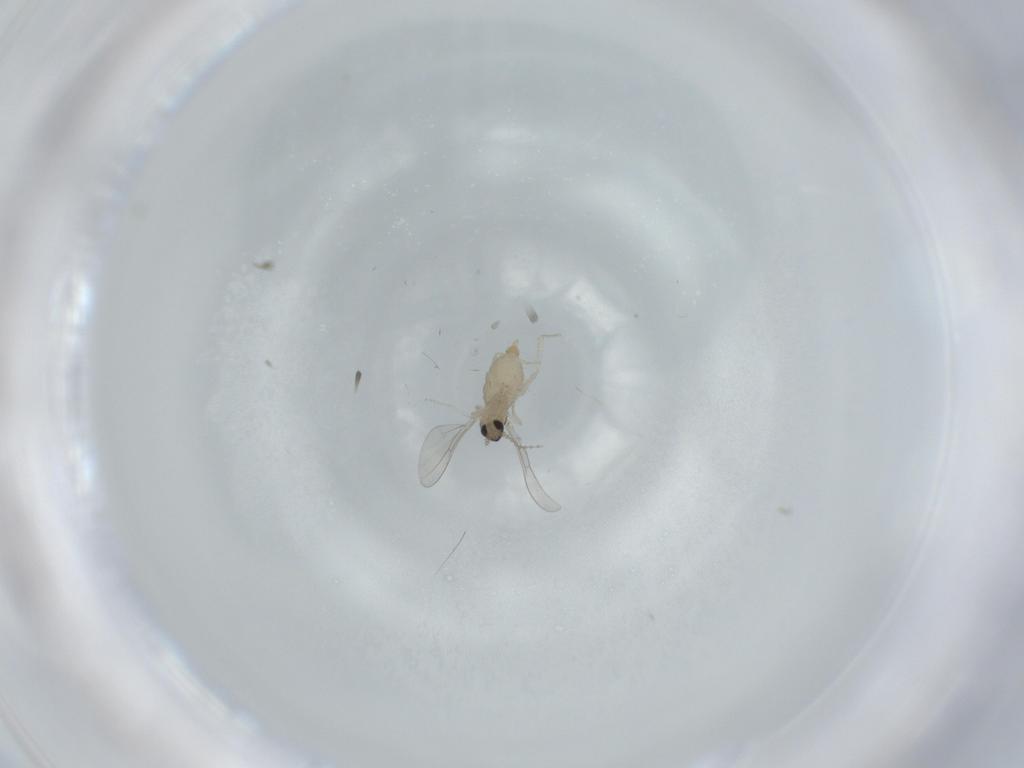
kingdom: Animalia
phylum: Arthropoda
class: Insecta
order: Diptera
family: Cecidomyiidae
